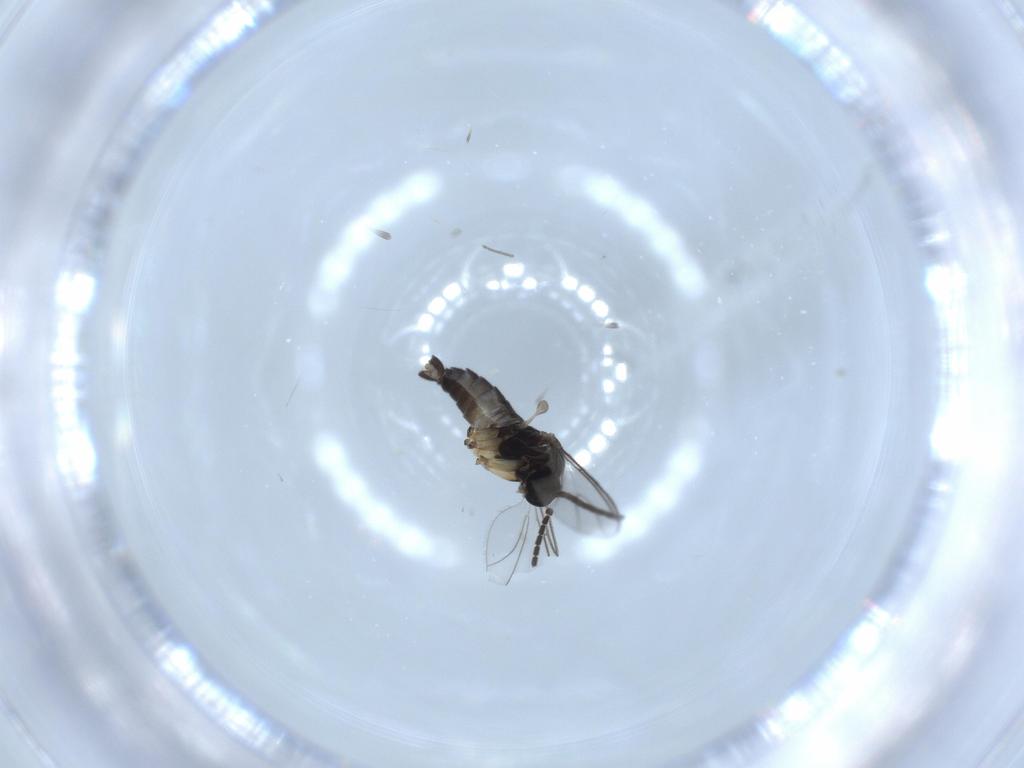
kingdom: Animalia
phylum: Arthropoda
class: Insecta
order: Diptera
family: Sciaridae
